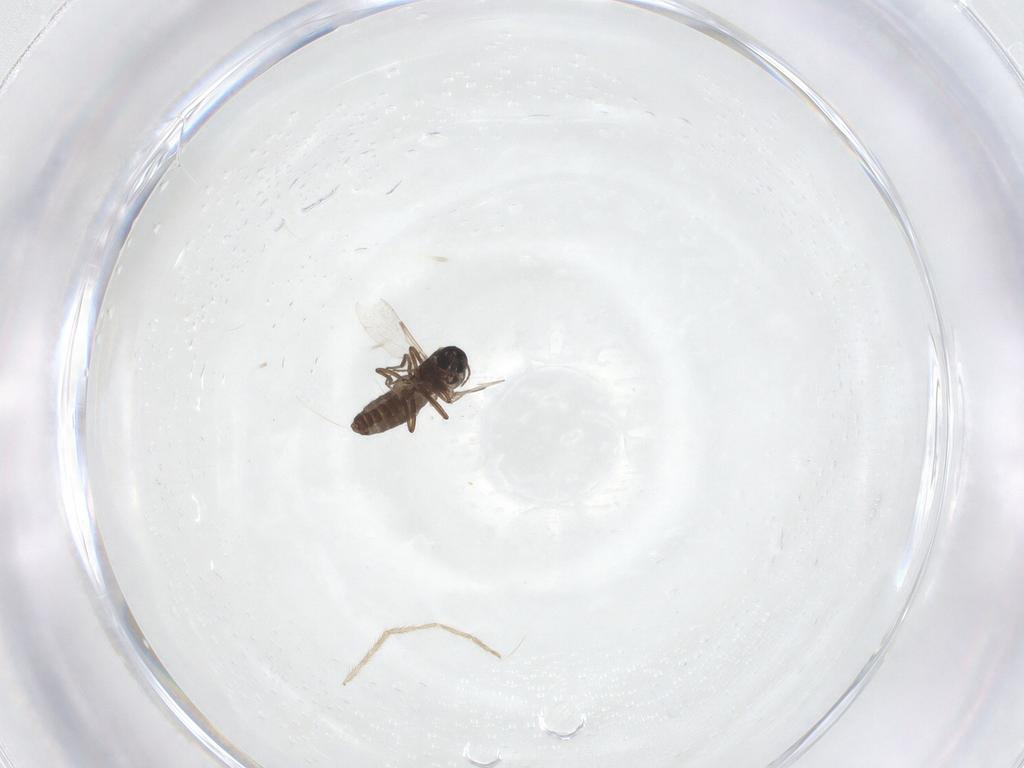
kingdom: Animalia
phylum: Arthropoda
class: Insecta
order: Diptera
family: Ceratopogonidae
